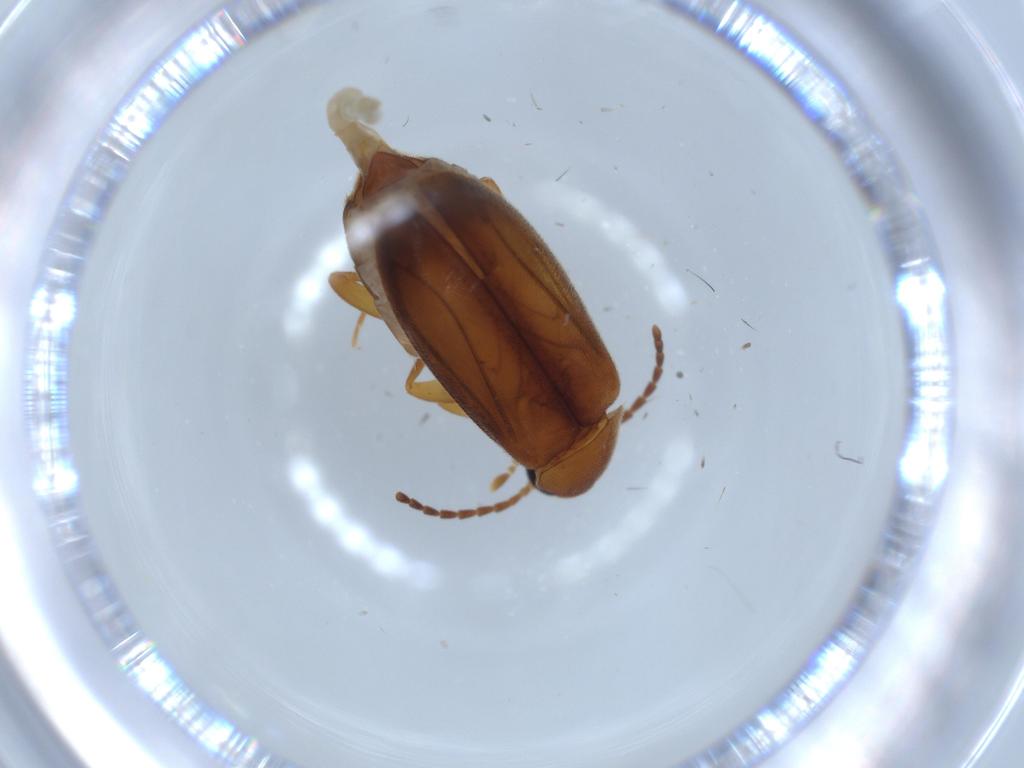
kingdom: Animalia
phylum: Arthropoda
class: Insecta
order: Coleoptera
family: Scraptiidae
